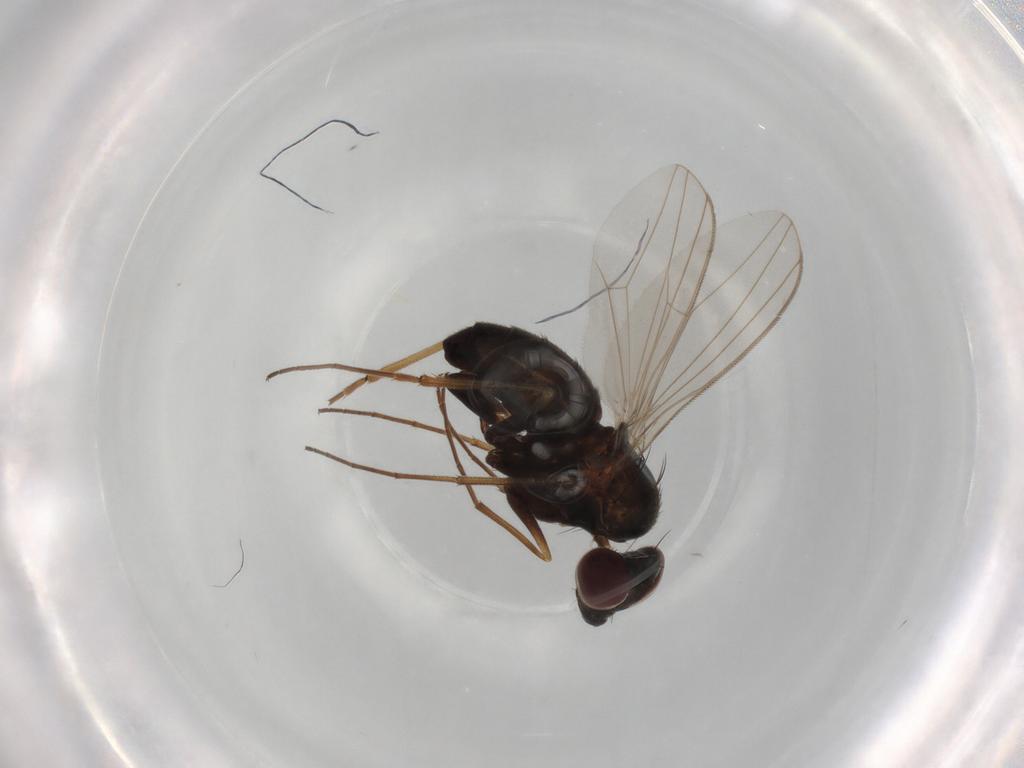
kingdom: Animalia
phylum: Arthropoda
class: Insecta
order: Diptera
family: Dolichopodidae
